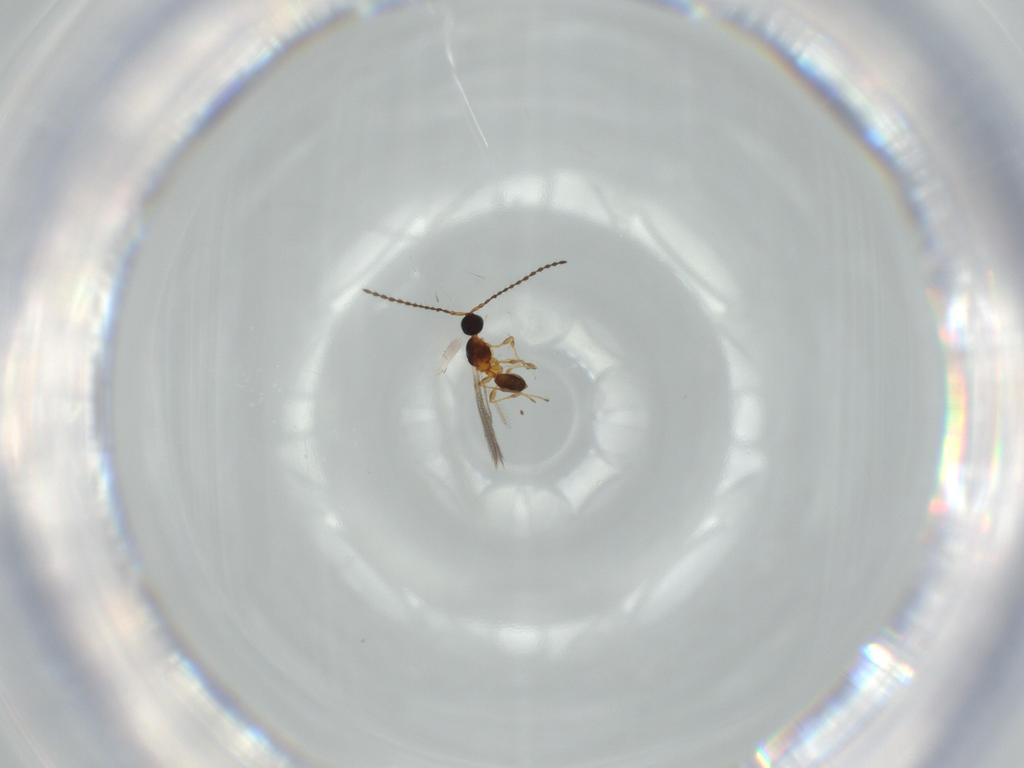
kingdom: Animalia
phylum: Arthropoda
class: Insecta
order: Hymenoptera
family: Diapriidae
